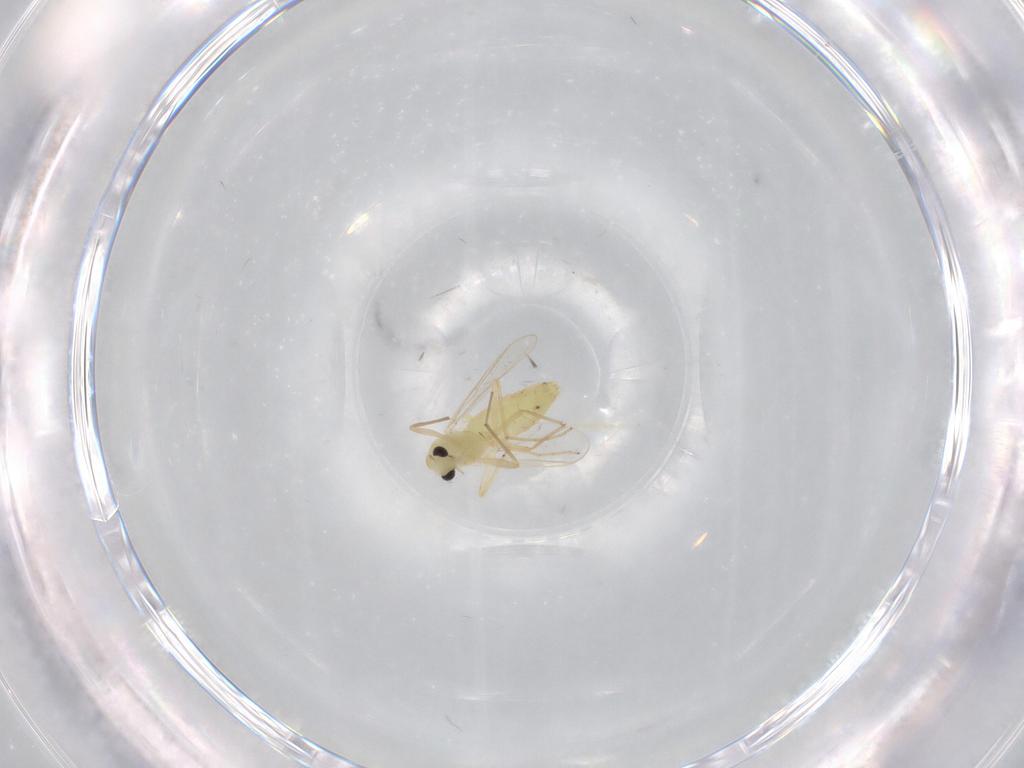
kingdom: Animalia
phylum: Arthropoda
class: Insecta
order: Diptera
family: Chironomidae
